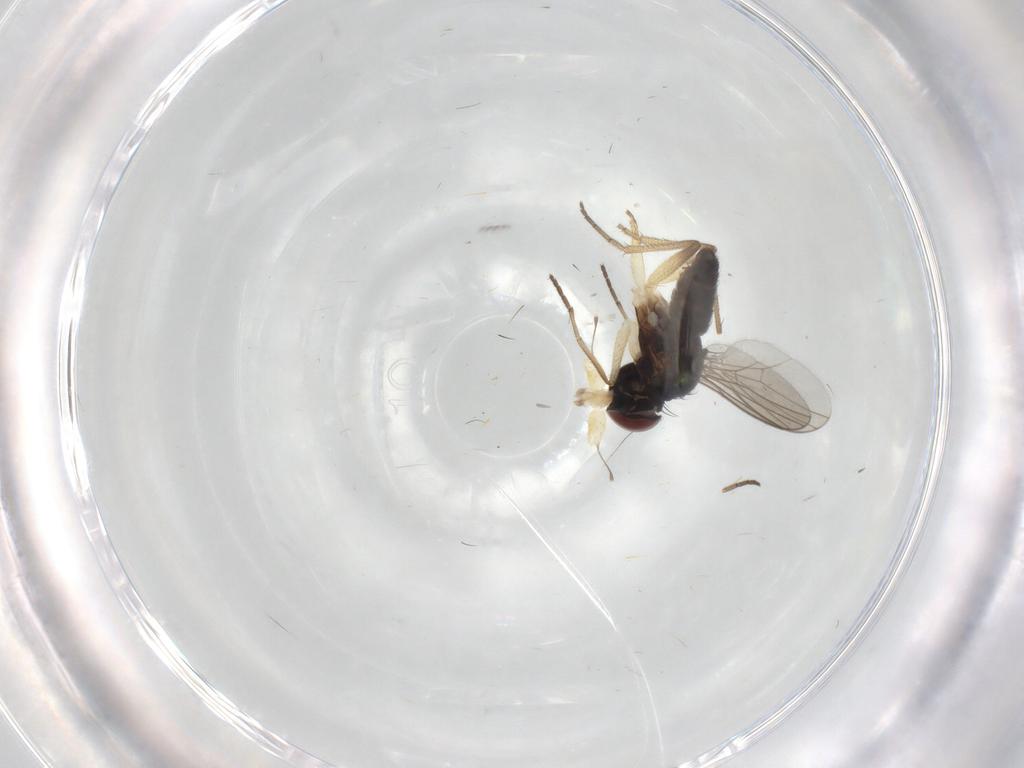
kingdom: Animalia
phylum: Arthropoda
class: Insecta
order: Diptera
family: Dolichopodidae
